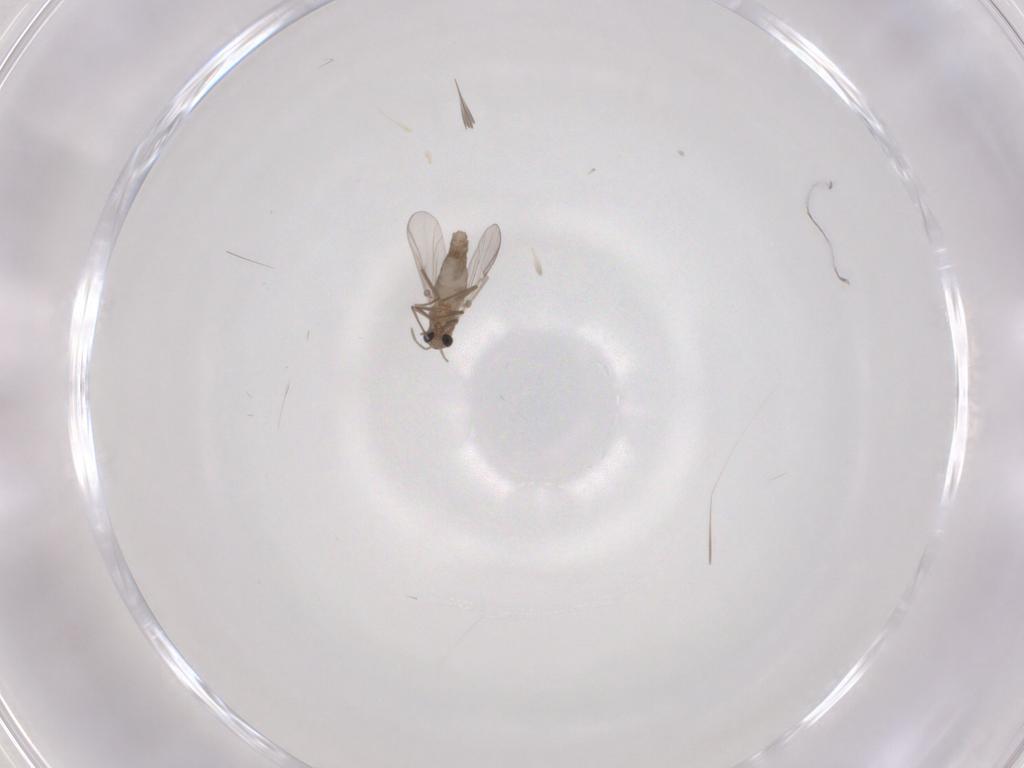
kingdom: Animalia
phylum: Arthropoda
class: Insecta
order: Diptera
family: Chironomidae
